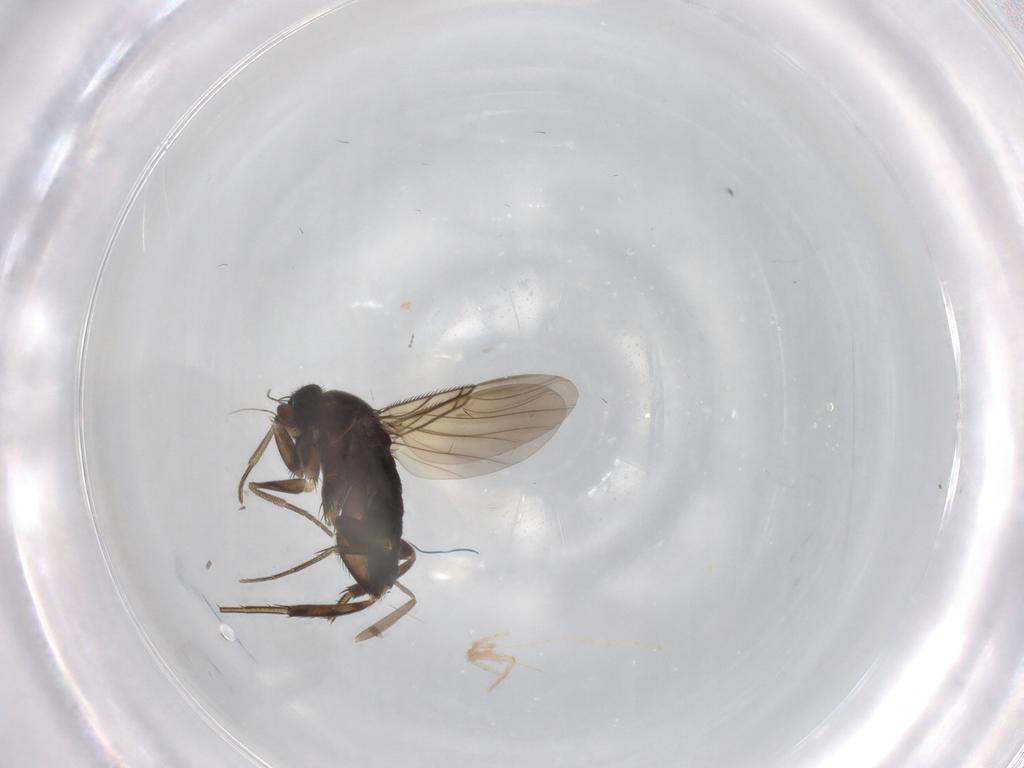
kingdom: Animalia
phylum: Arthropoda
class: Insecta
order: Diptera
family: Phoridae
